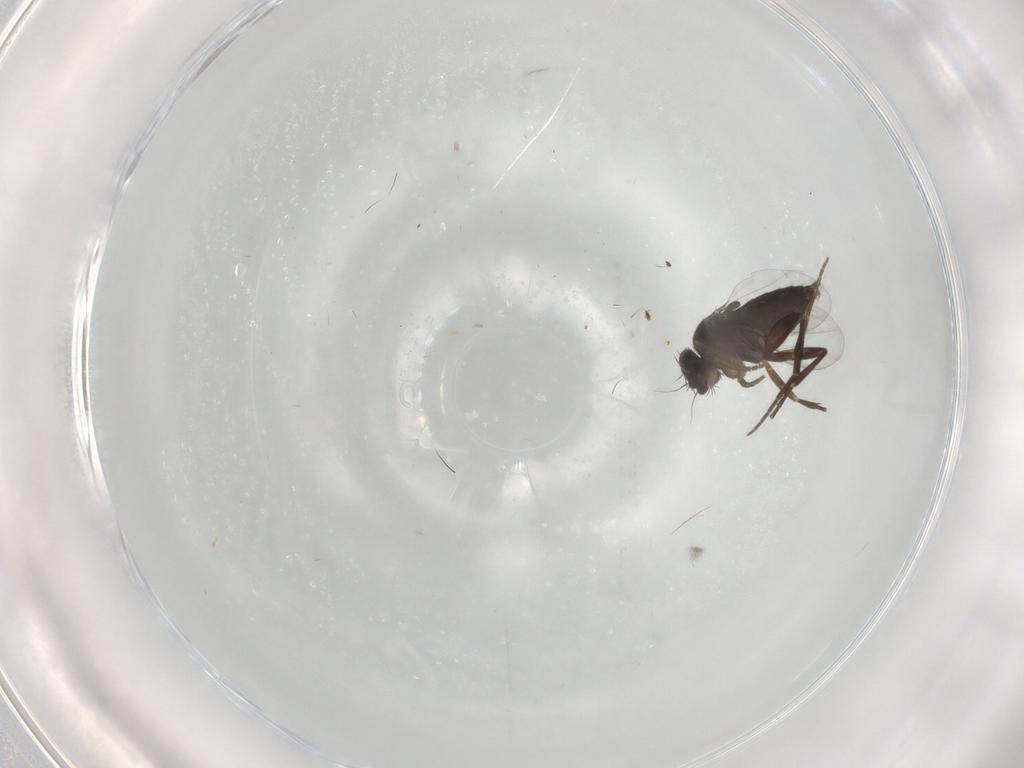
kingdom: Animalia
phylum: Arthropoda
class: Insecta
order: Diptera
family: Phoridae
